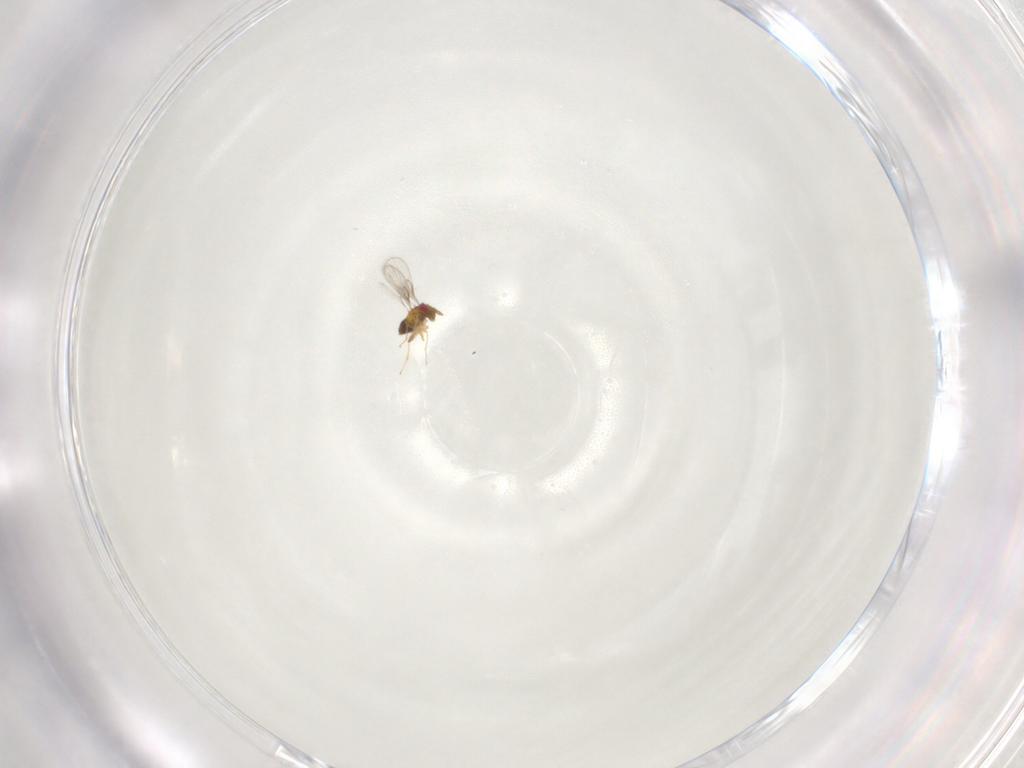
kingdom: Animalia
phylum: Arthropoda
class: Insecta
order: Hymenoptera
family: Trichogrammatidae
